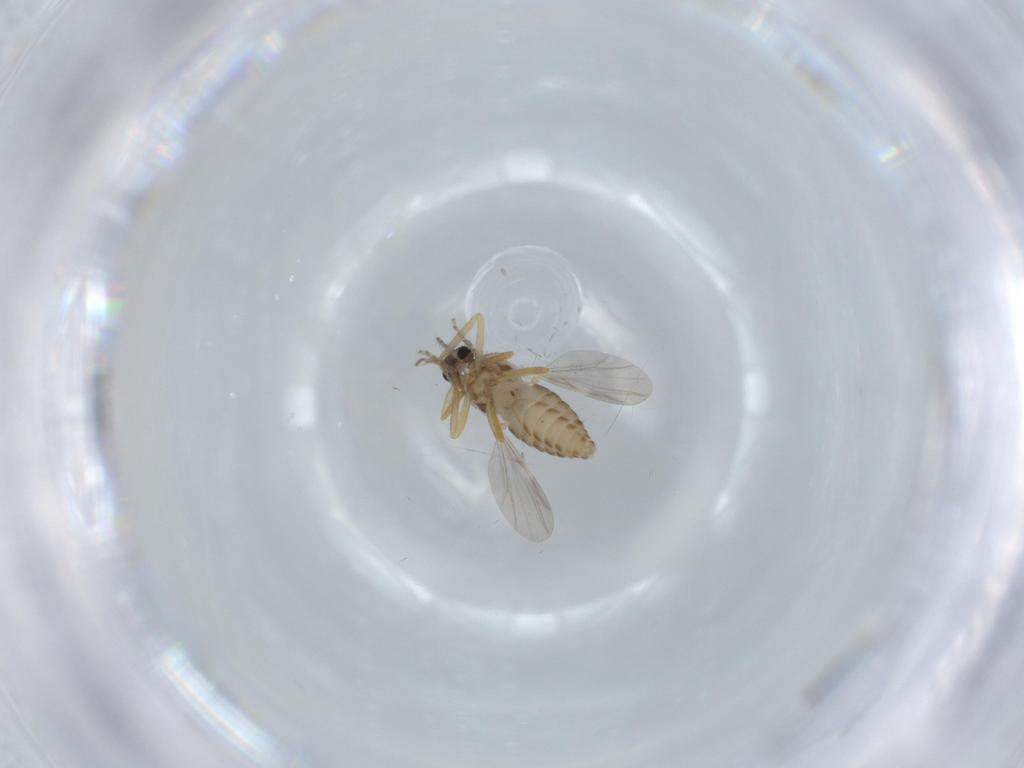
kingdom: Animalia
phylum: Arthropoda
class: Insecta
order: Diptera
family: Ceratopogonidae
